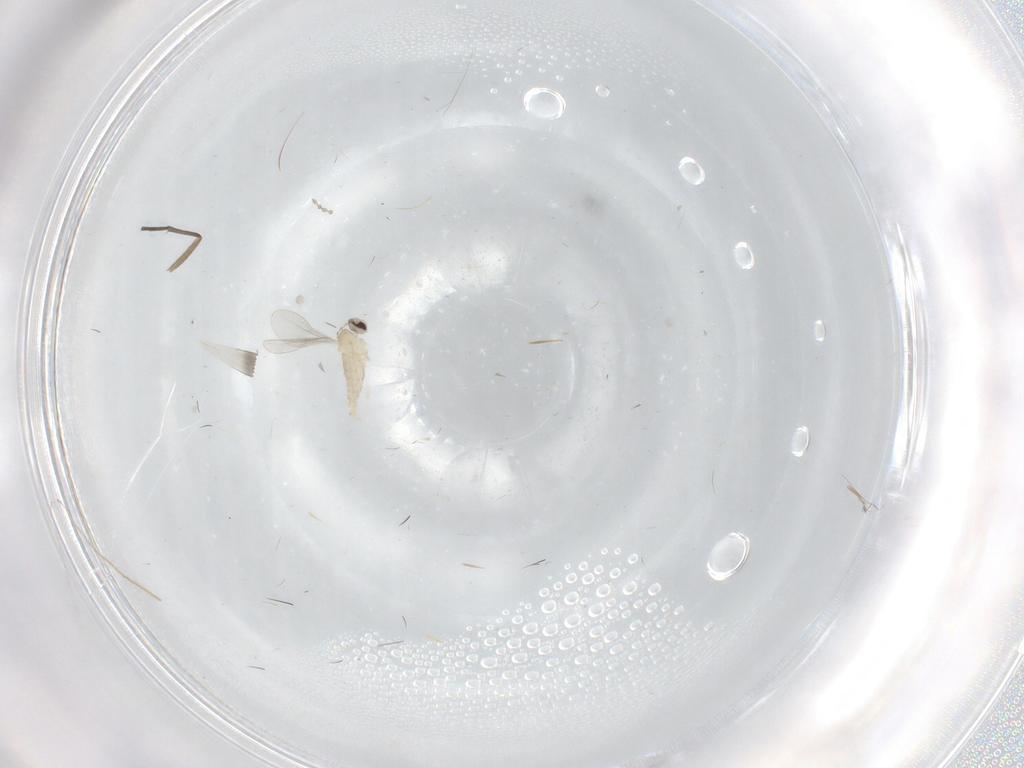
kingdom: Animalia
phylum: Arthropoda
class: Insecta
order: Diptera
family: Cecidomyiidae
